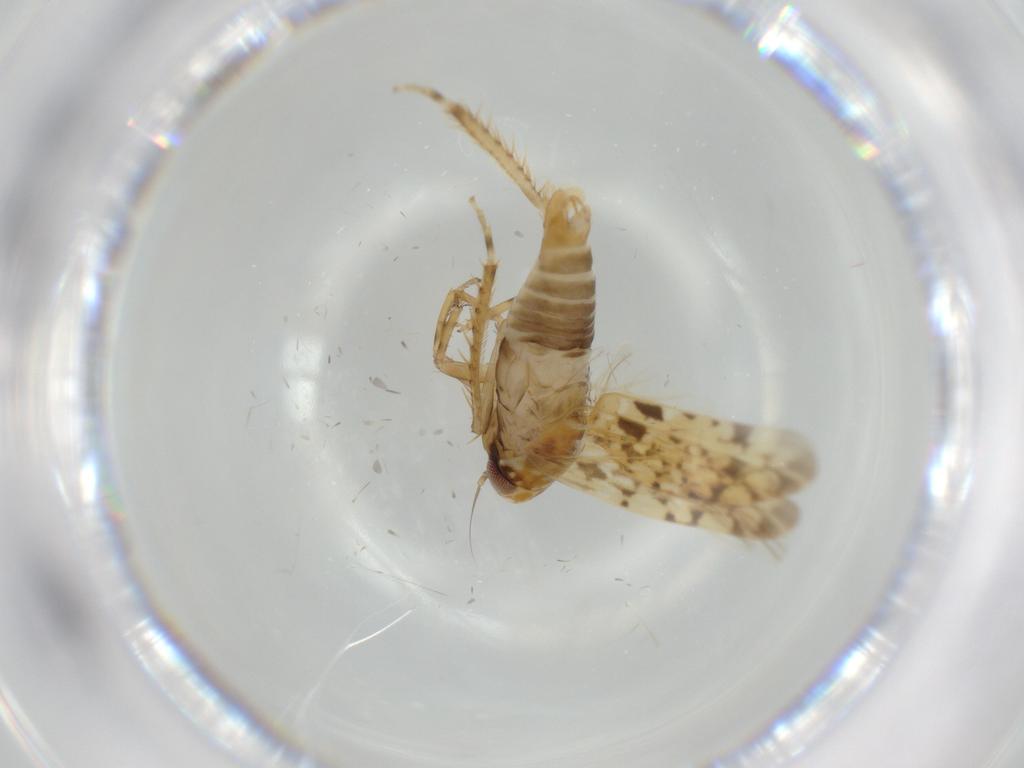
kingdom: Animalia
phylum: Arthropoda
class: Insecta
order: Hemiptera
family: Cicadellidae
